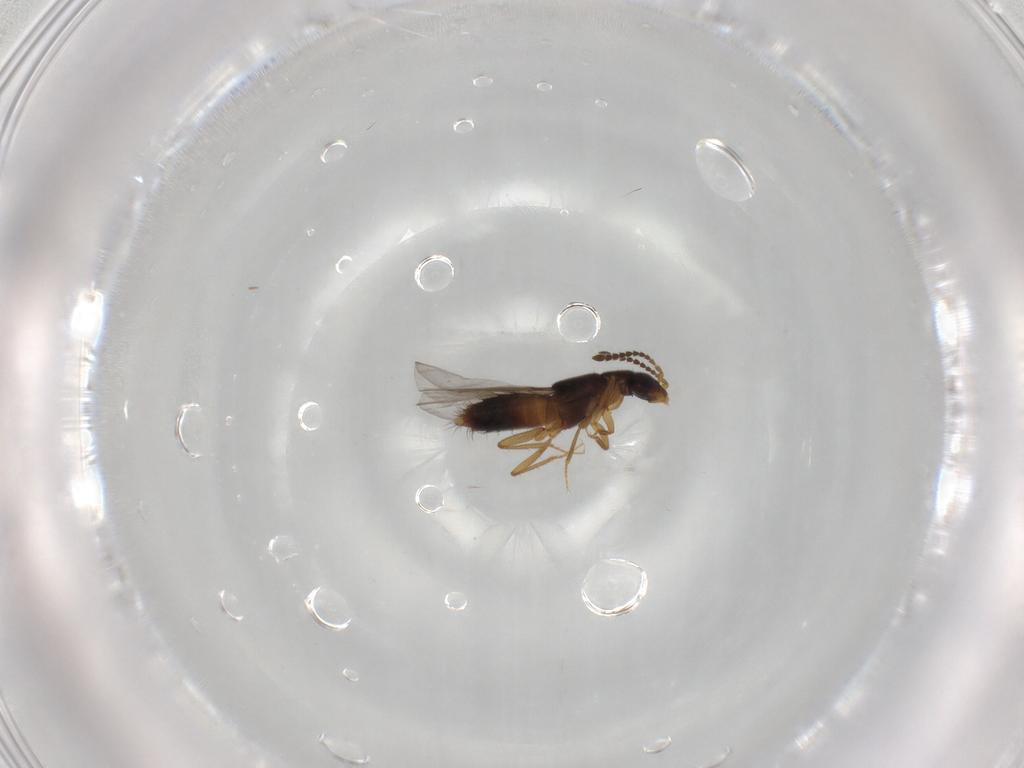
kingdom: Animalia
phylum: Arthropoda
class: Insecta
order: Coleoptera
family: Staphylinidae
